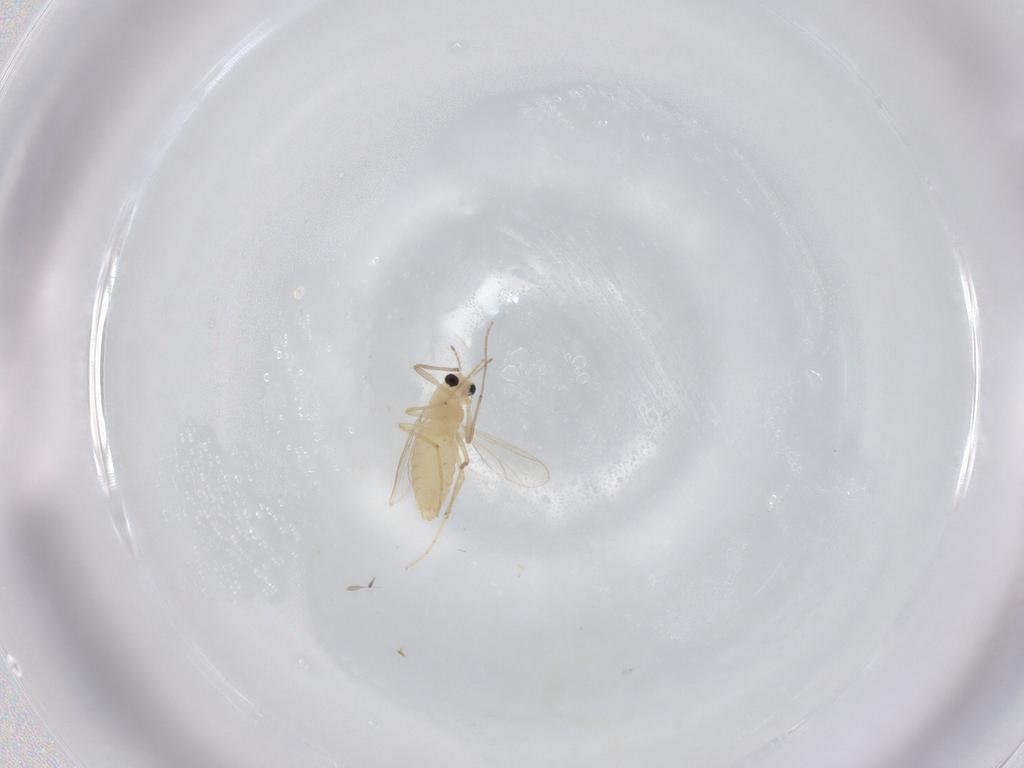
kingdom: Animalia
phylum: Arthropoda
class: Insecta
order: Diptera
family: Chironomidae
